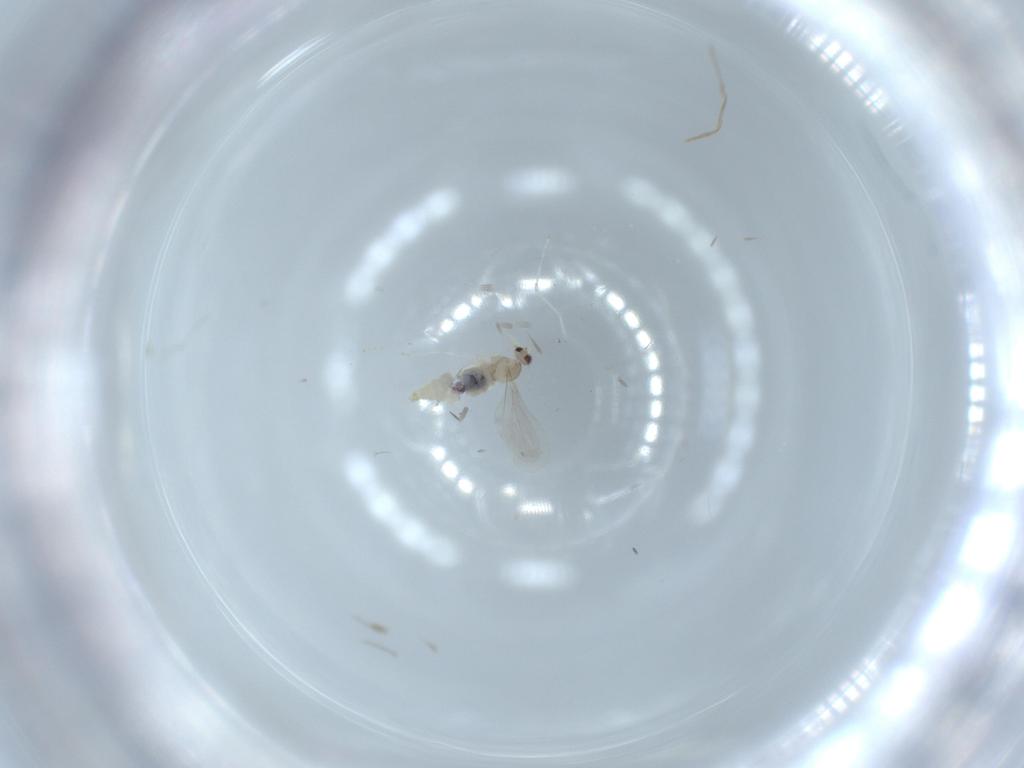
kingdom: Animalia
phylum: Arthropoda
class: Insecta
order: Diptera
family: Cecidomyiidae
